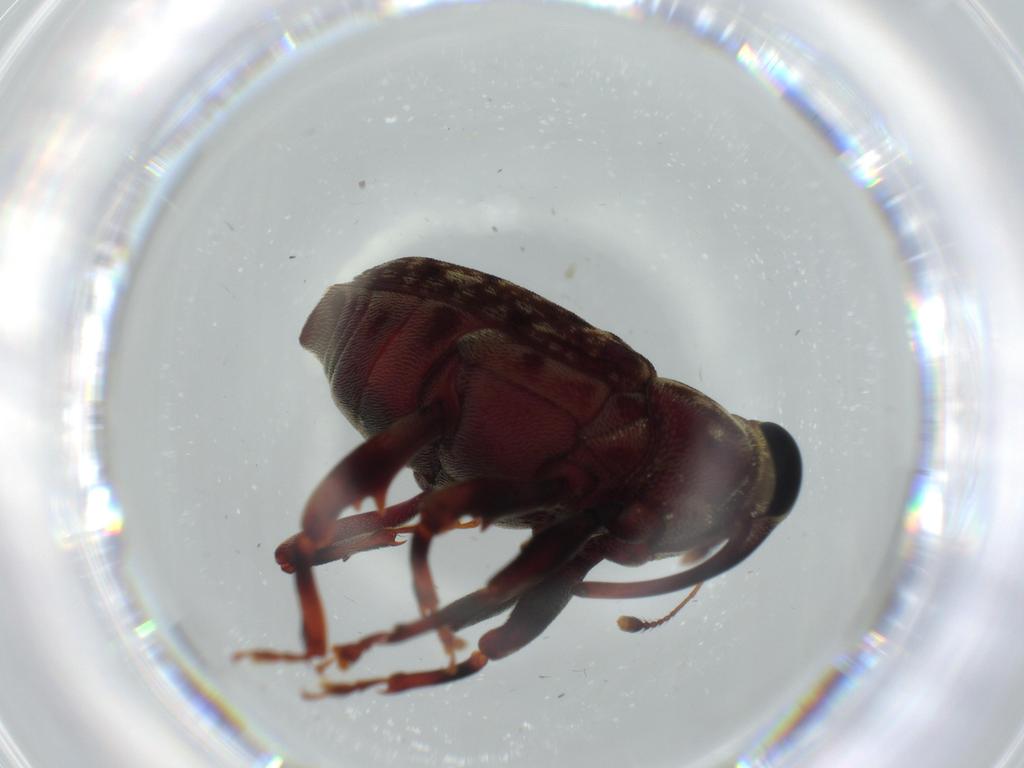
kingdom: Animalia
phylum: Arthropoda
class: Insecta
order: Coleoptera
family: Curculionidae
